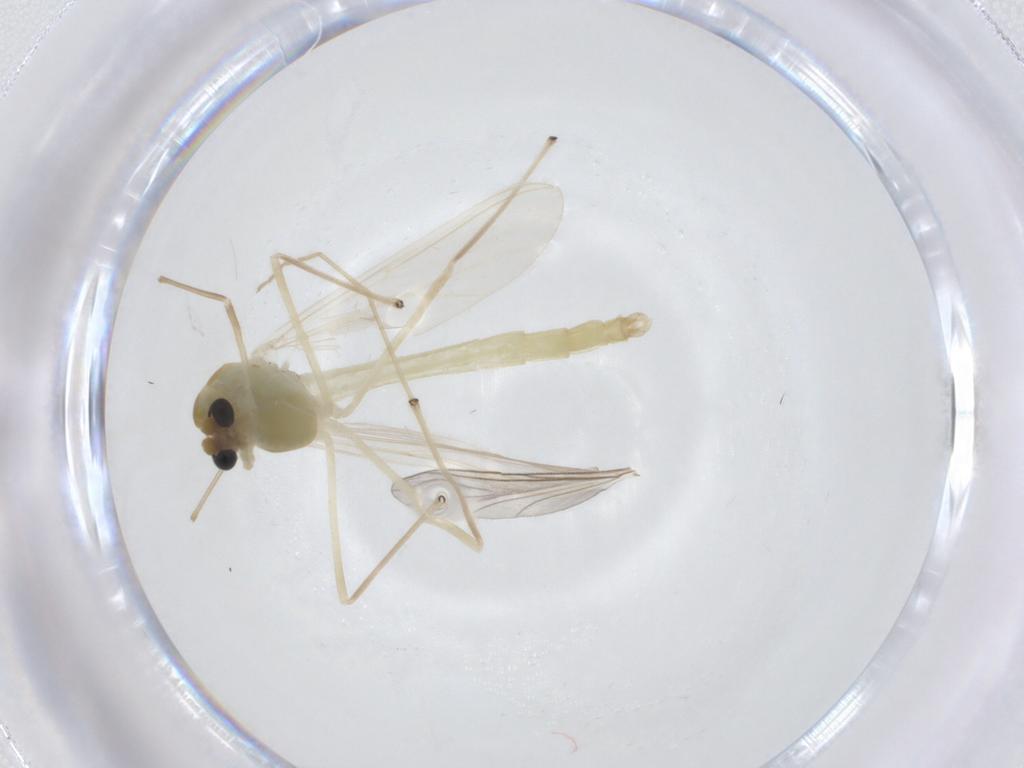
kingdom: Animalia
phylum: Arthropoda
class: Insecta
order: Diptera
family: Chironomidae
